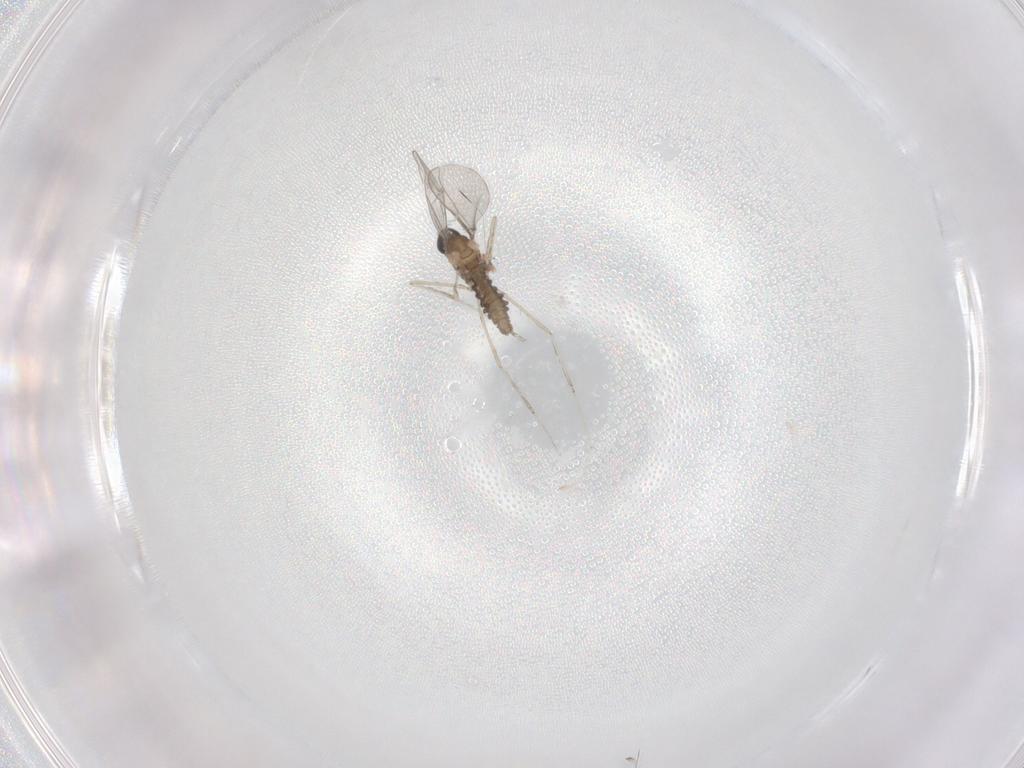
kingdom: Animalia
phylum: Arthropoda
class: Insecta
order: Diptera
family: Cecidomyiidae
